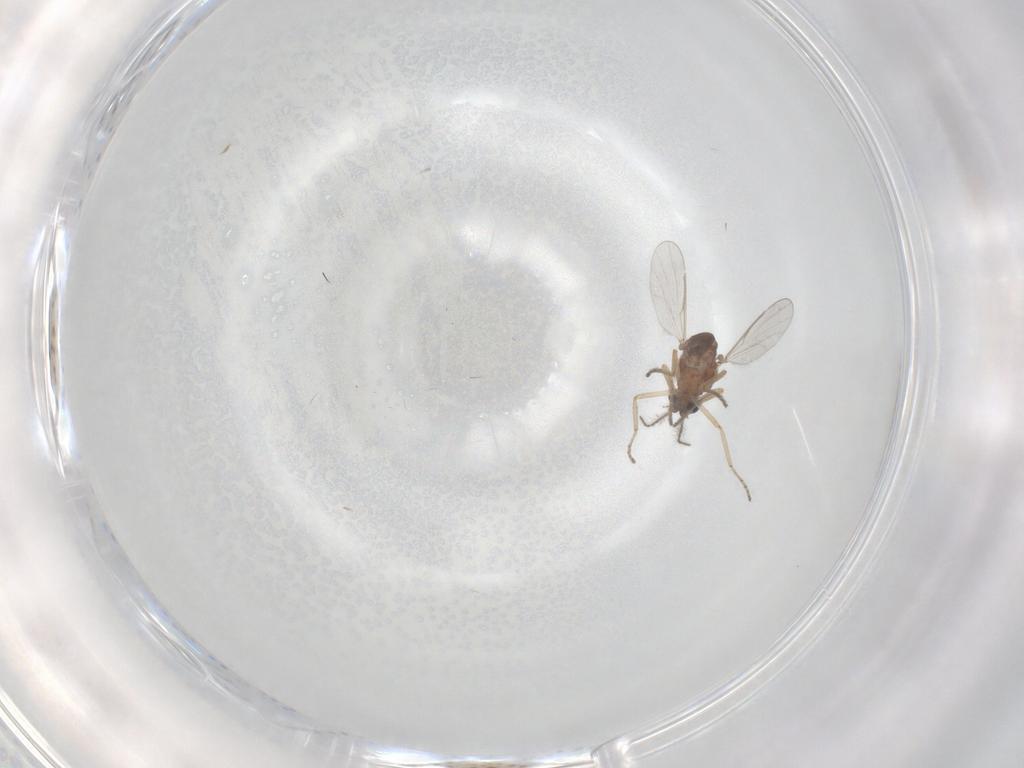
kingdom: Animalia
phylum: Arthropoda
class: Insecta
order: Diptera
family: Ceratopogonidae
